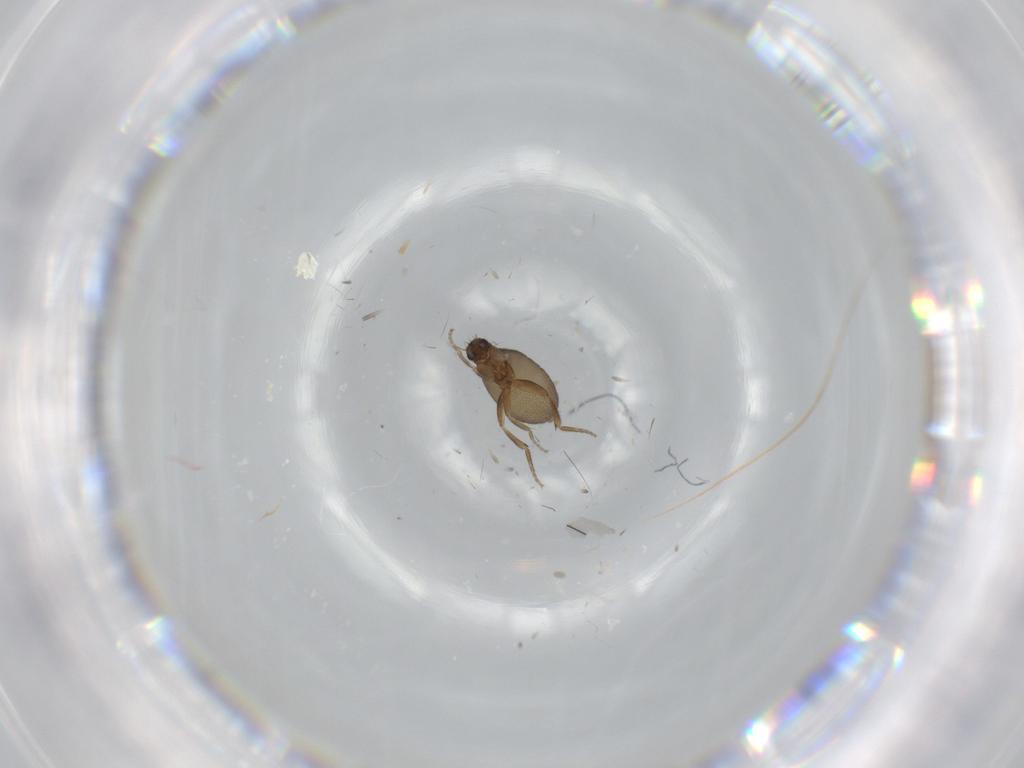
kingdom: Animalia
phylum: Arthropoda
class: Insecta
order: Diptera
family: Phoridae
